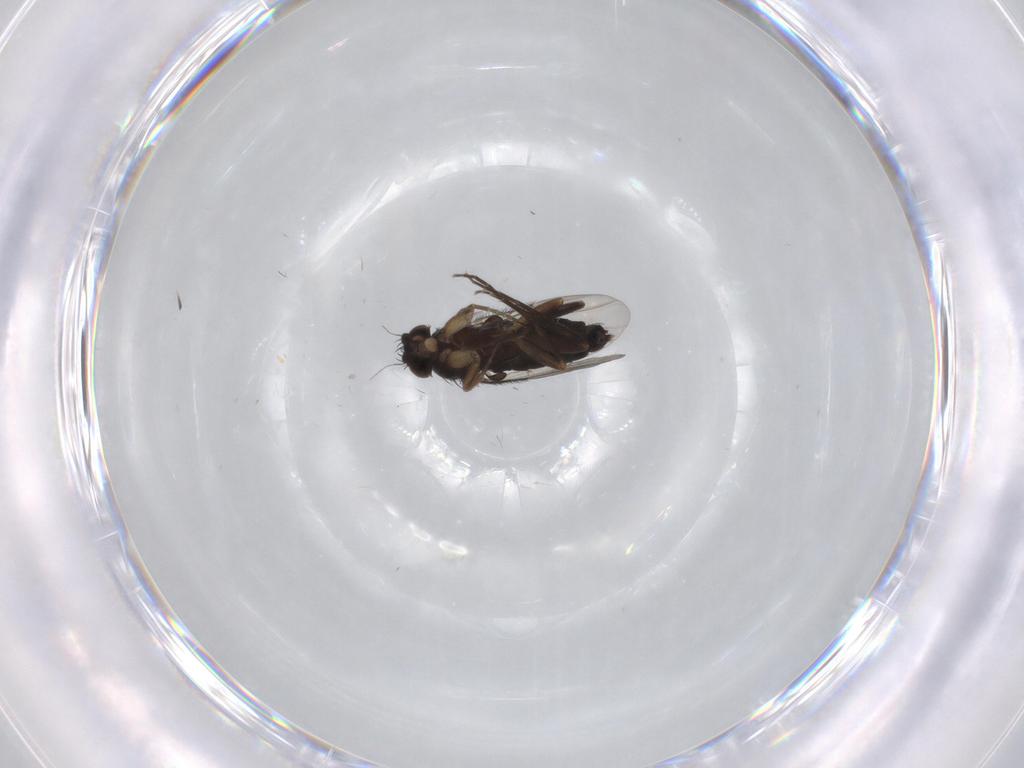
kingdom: Animalia
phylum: Arthropoda
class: Insecta
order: Diptera
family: Phoridae
